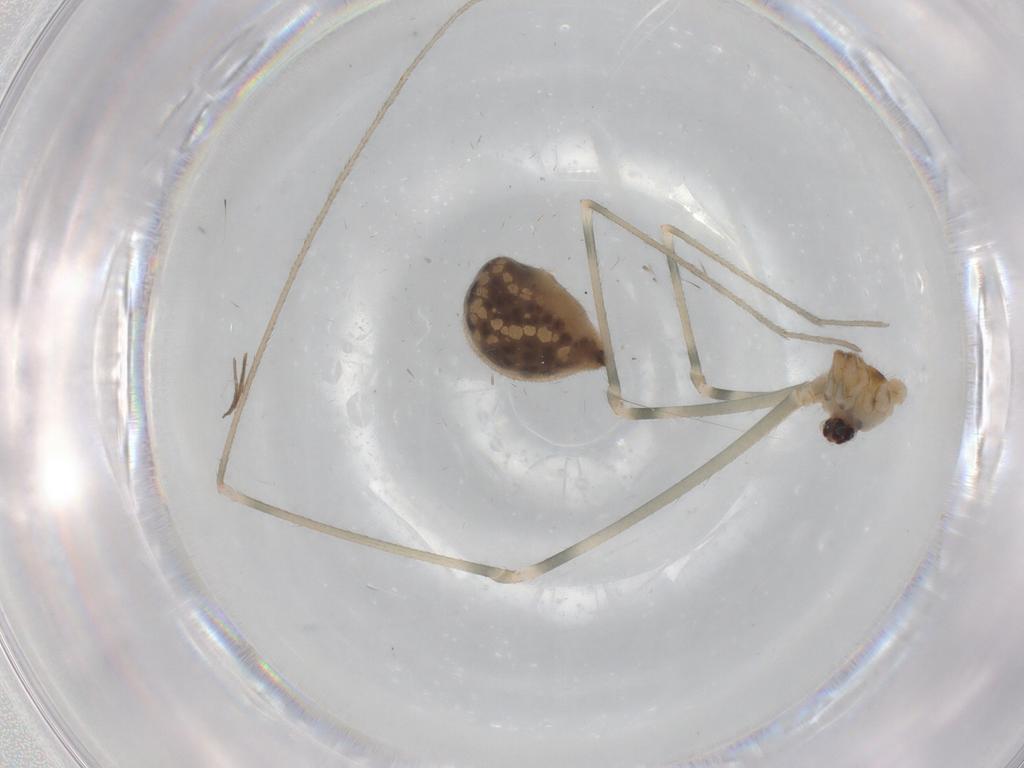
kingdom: Animalia
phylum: Arthropoda
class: Arachnida
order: Araneae
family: Pholcidae
